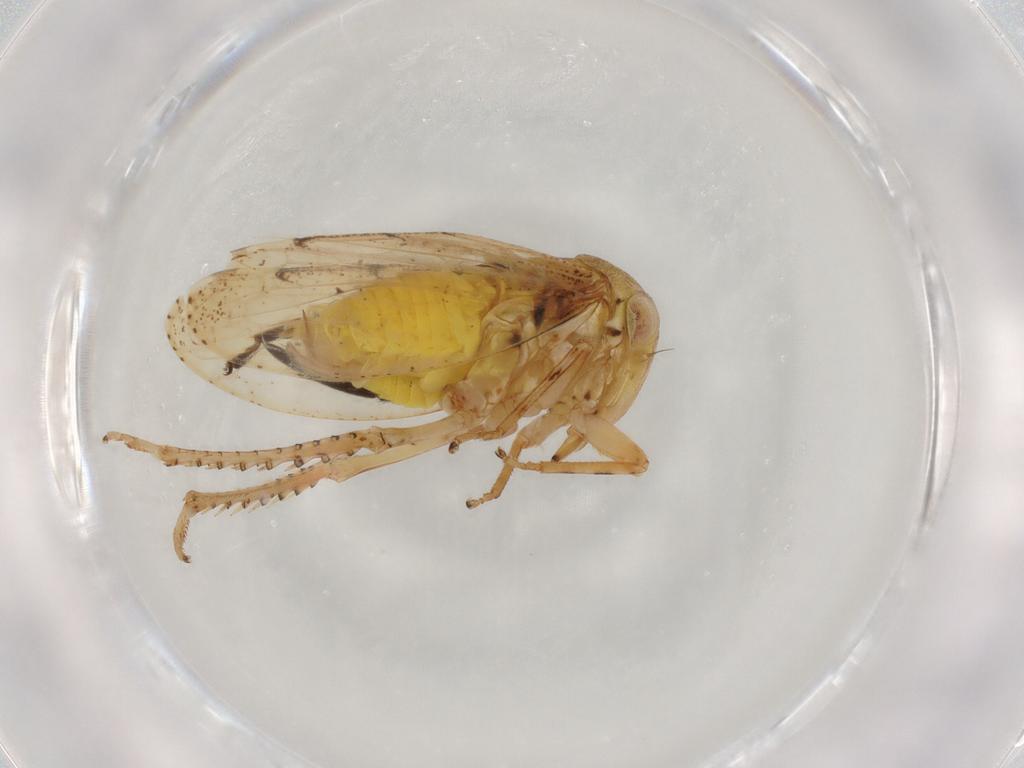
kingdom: Animalia
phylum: Arthropoda
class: Insecta
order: Hemiptera
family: Cicadellidae
